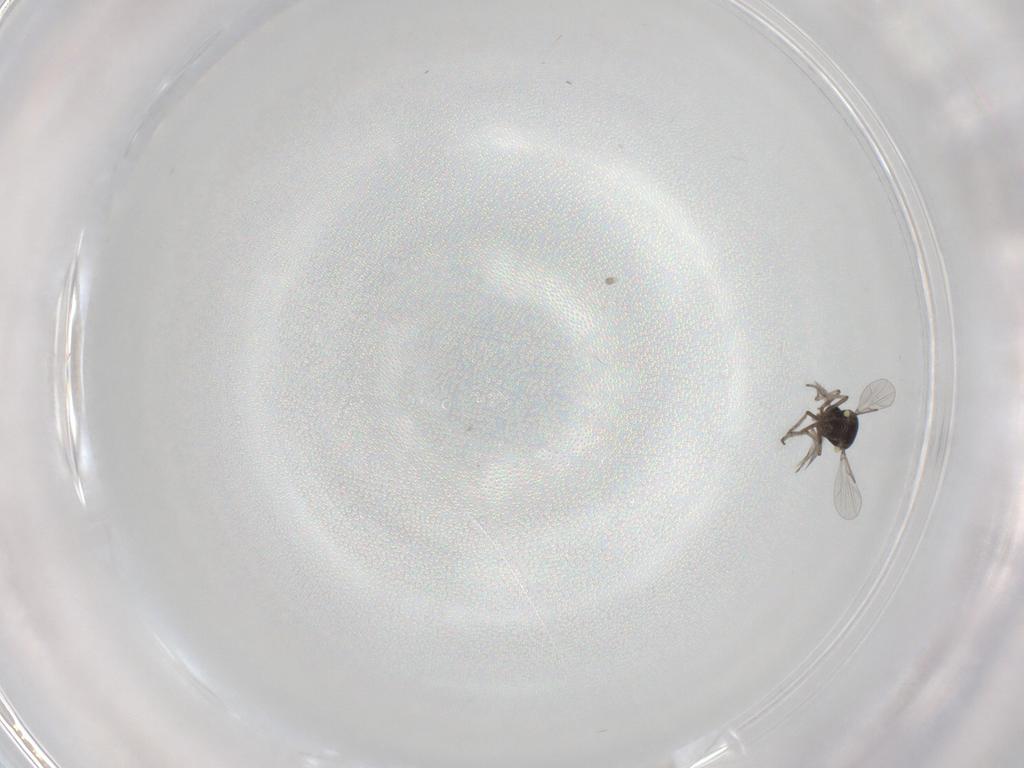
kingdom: Animalia
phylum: Arthropoda
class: Insecta
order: Diptera
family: Ceratopogonidae
